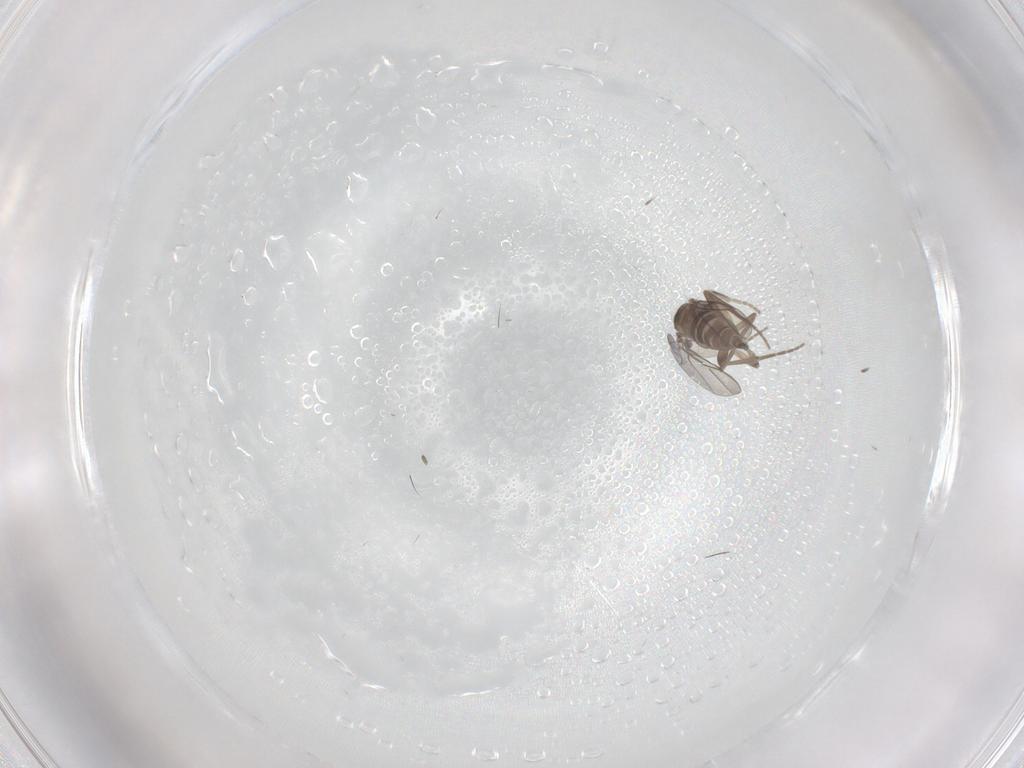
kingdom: Animalia
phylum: Arthropoda
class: Insecta
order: Diptera
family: Phoridae
